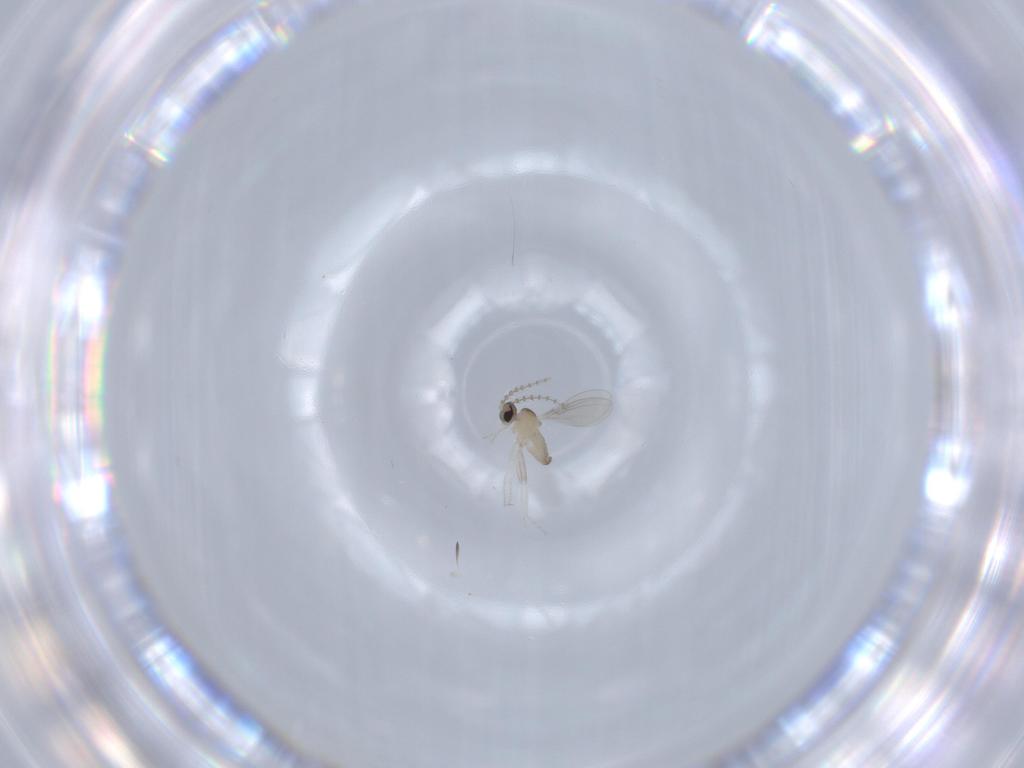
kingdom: Animalia
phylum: Arthropoda
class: Insecta
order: Diptera
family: Cecidomyiidae
